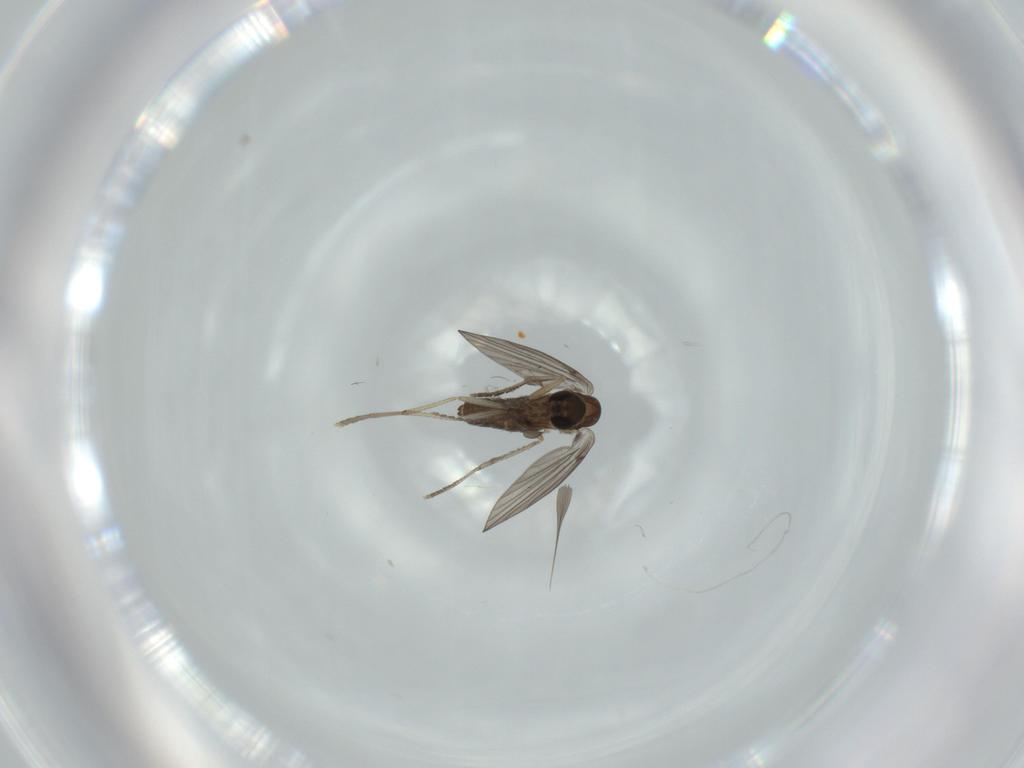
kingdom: Animalia
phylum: Arthropoda
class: Insecta
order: Diptera
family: Psychodidae
